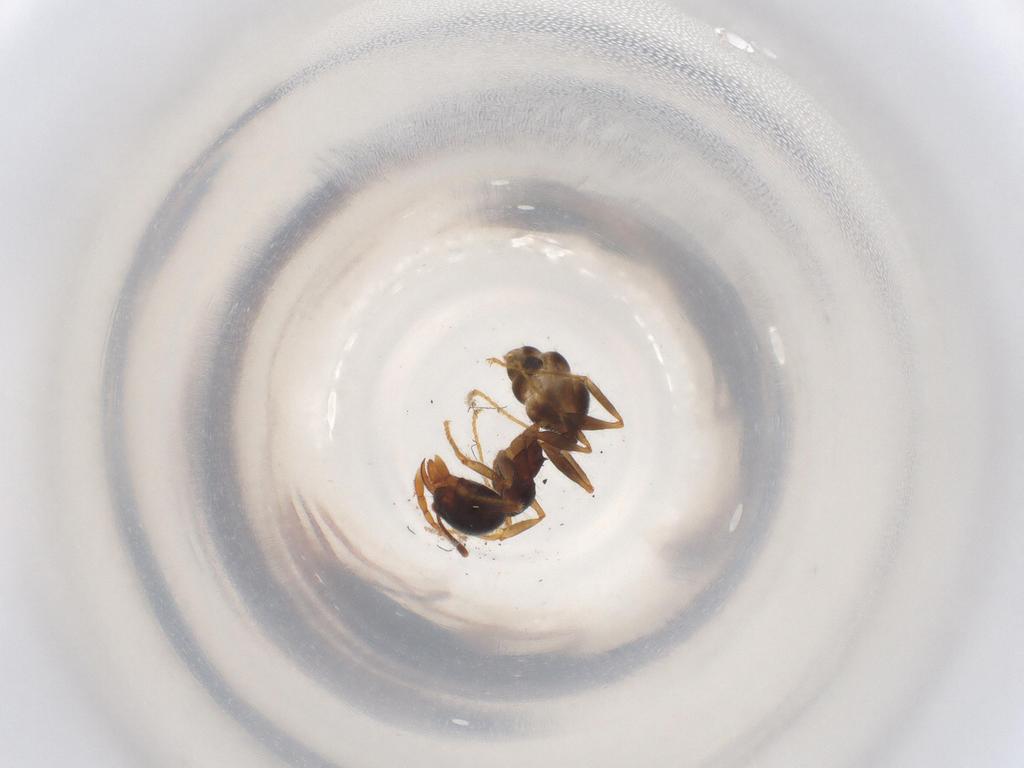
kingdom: Animalia
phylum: Arthropoda
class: Insecta
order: Hymenoptera
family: Formicidae
